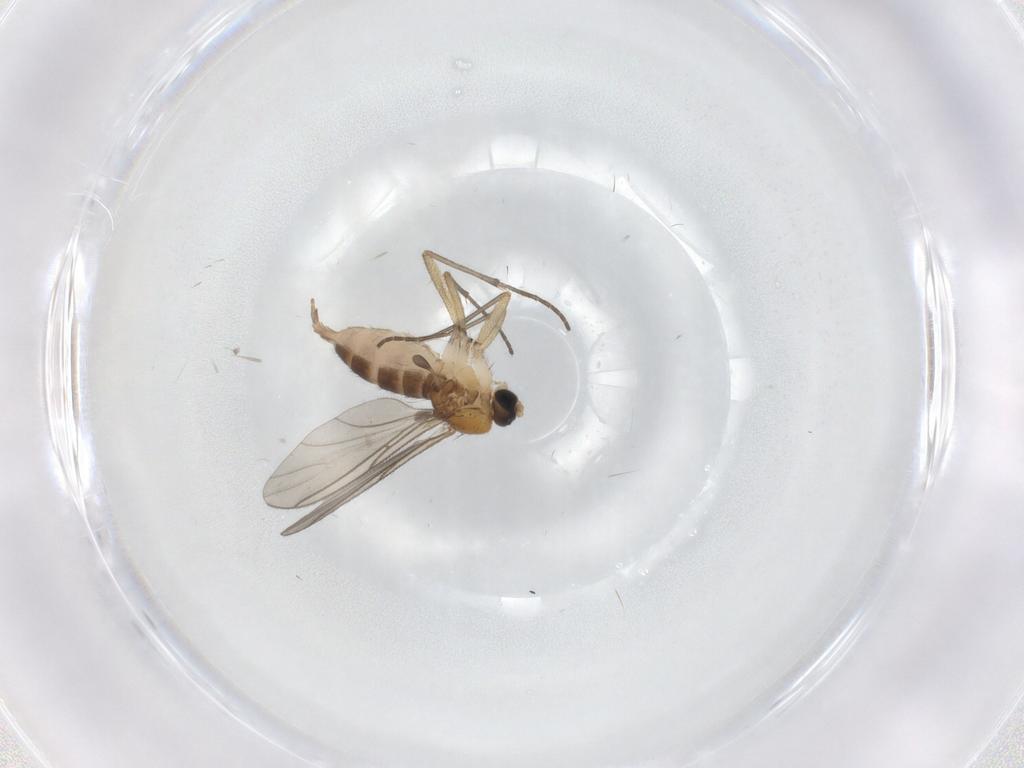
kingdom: Animalia
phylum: Arthropoda
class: Insecta
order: Diptera
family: Sciaridae
